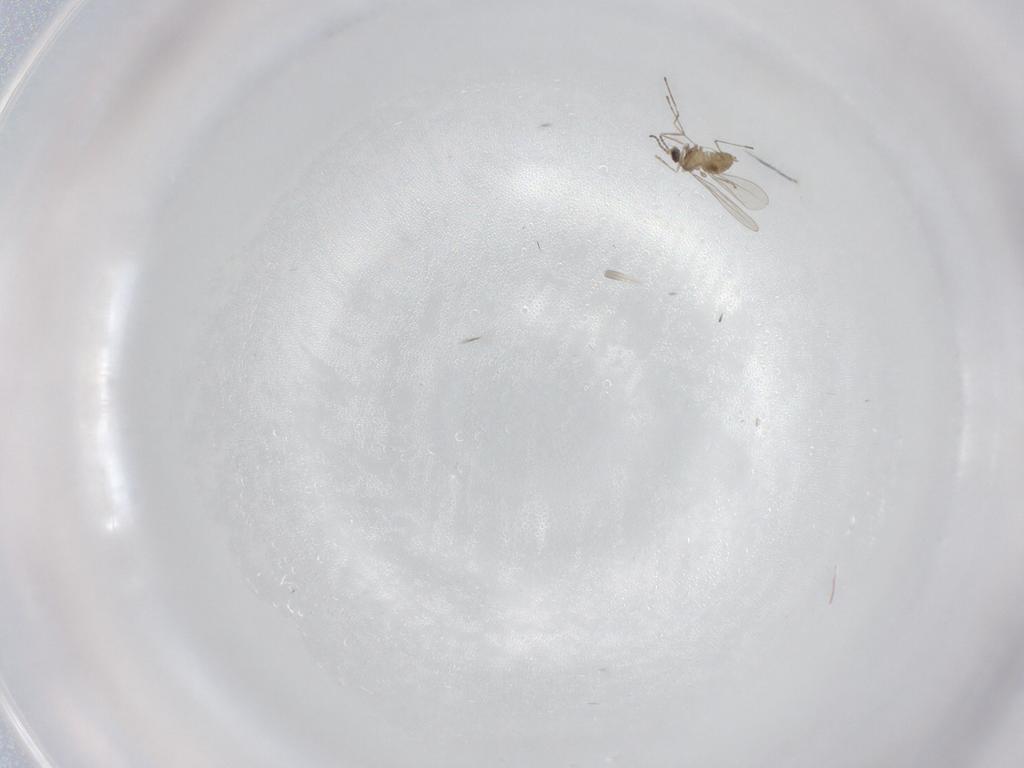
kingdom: Animalia
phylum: Arthropoda
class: Insecta
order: Diptera
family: Cecidomyiidae
